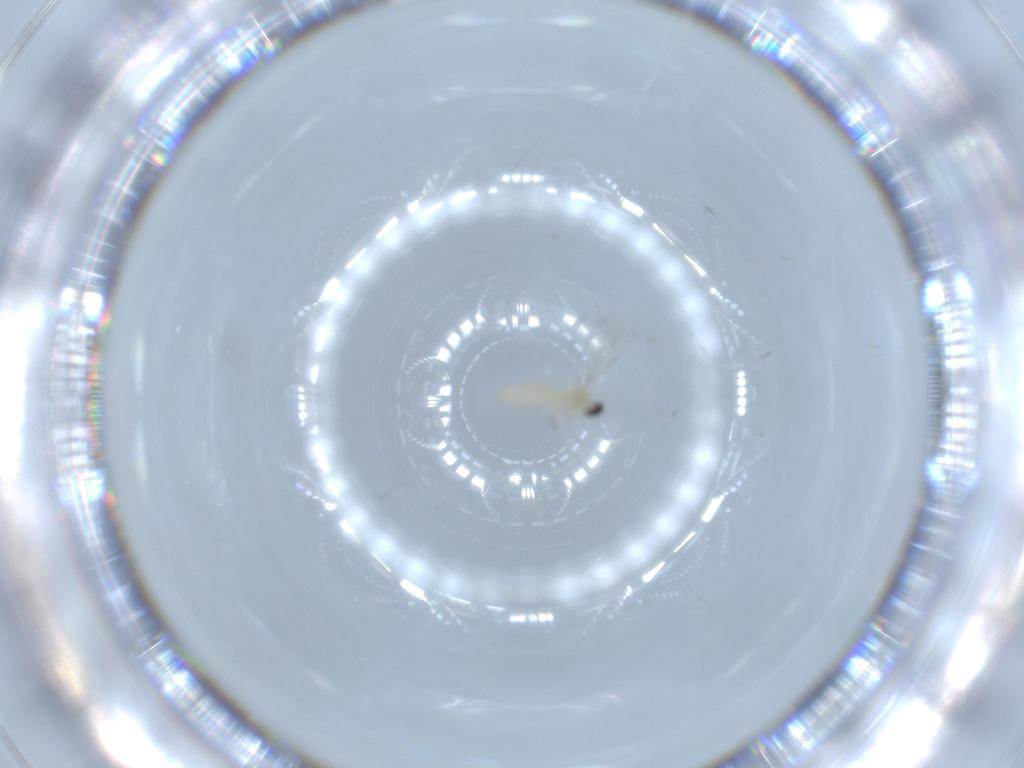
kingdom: Animalia
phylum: Arthropoda
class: Insecta
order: Diptera
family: Cecidomyiidae
